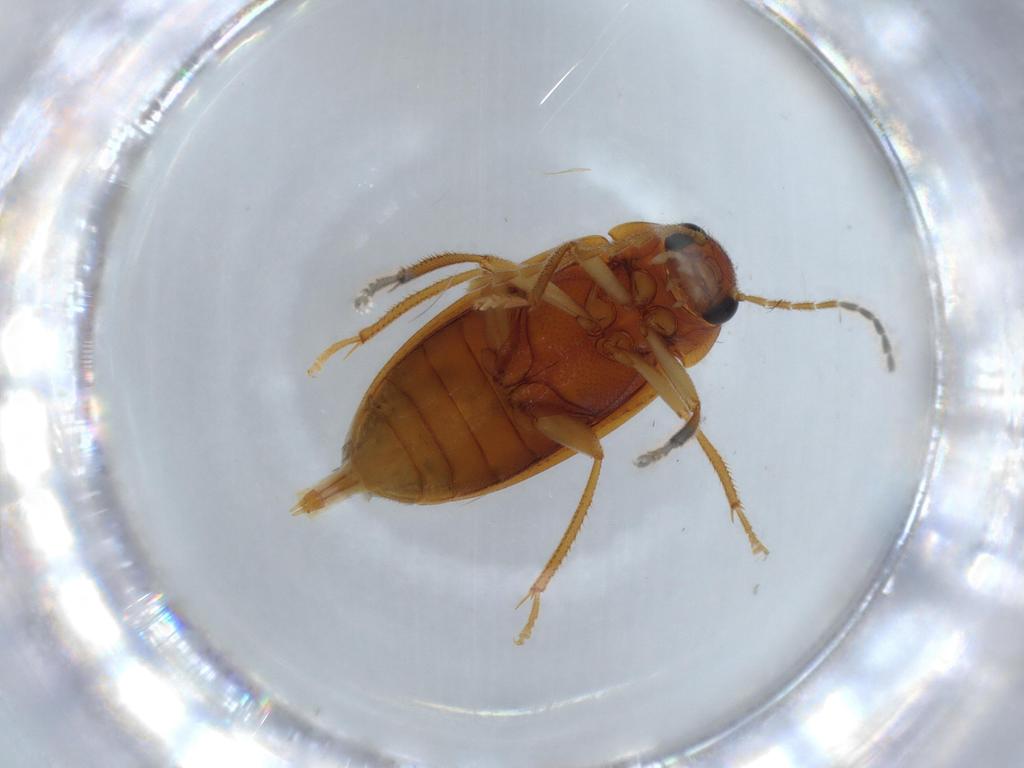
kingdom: Animalia
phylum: Arthropoda
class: Insecta
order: Coleoptera
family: Ptilodactylidae
